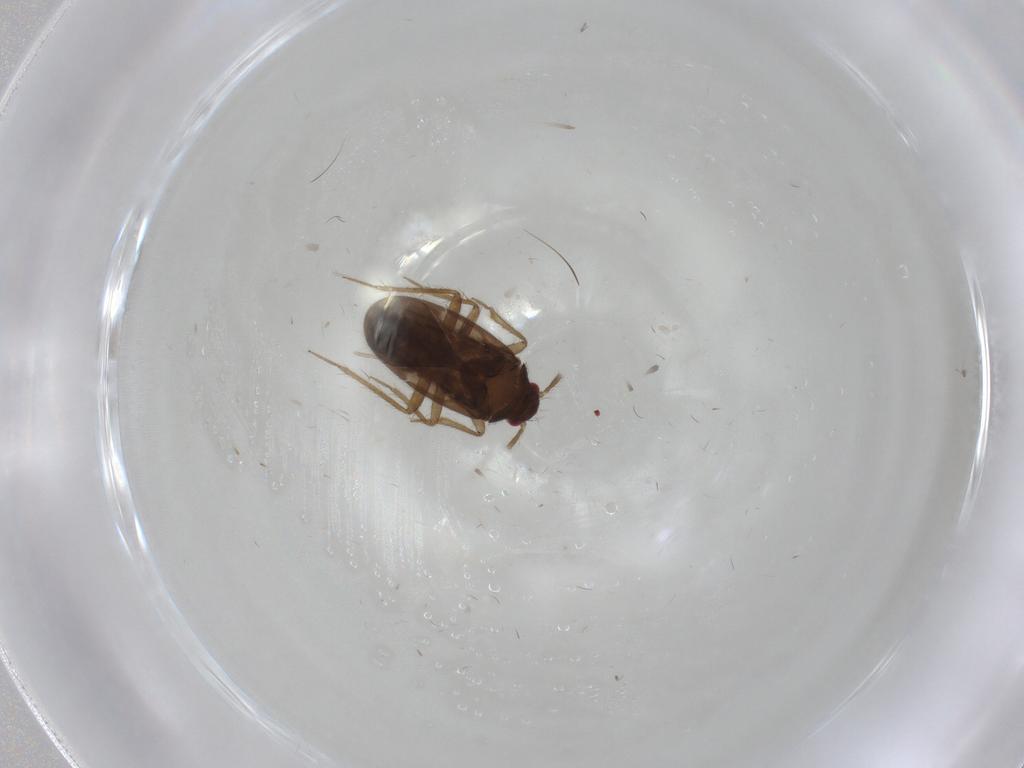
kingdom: Animalia
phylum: Arthropoda
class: Insecta
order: Hemiptera
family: Ceratocombidae
